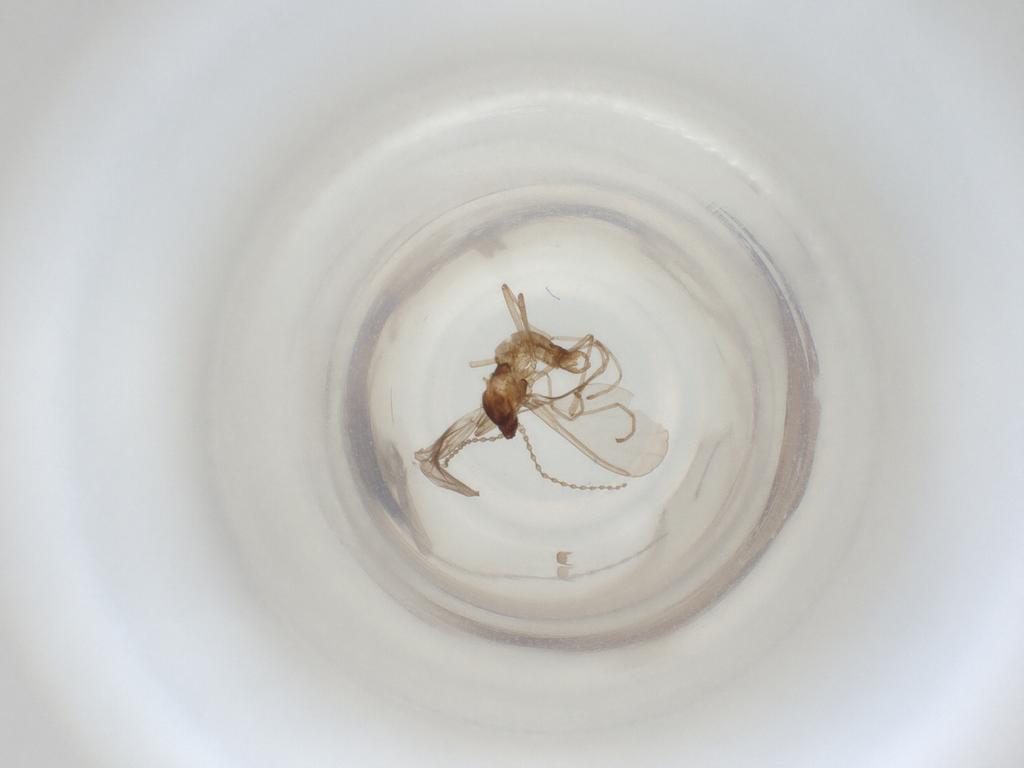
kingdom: Animalia
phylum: Arthropoda
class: Insecta
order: Diptera
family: Cecidomyiidae
